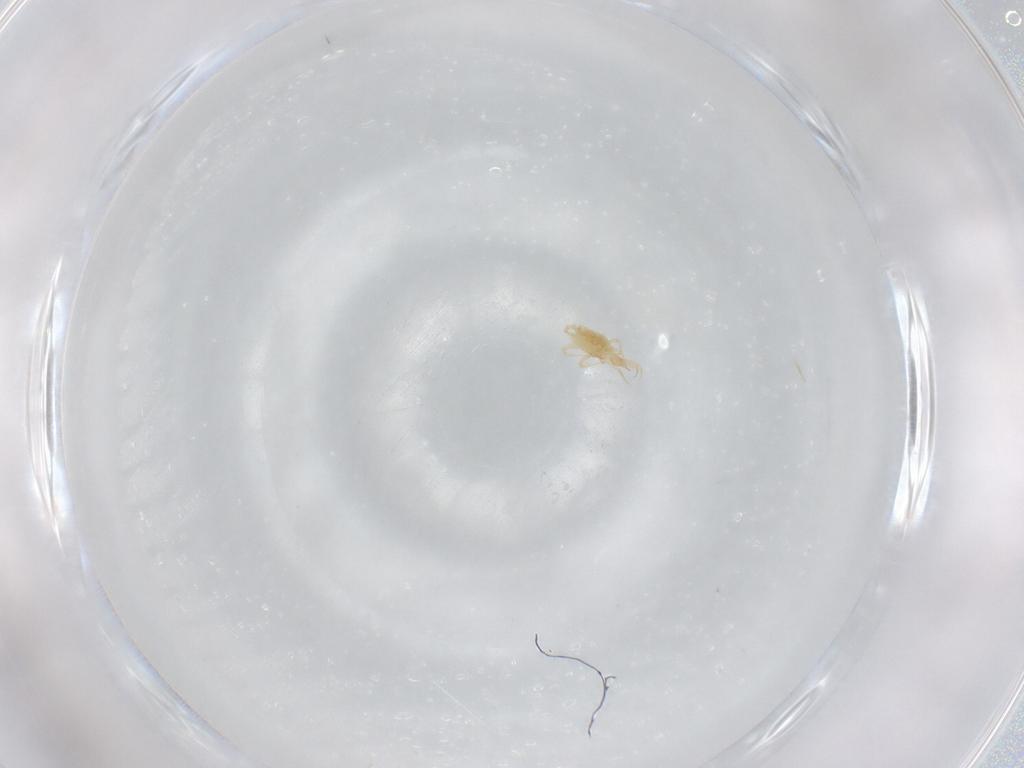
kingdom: Animalia
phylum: Arthropoda
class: Arachnida
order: Trombidiformes
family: Cunaxidae
